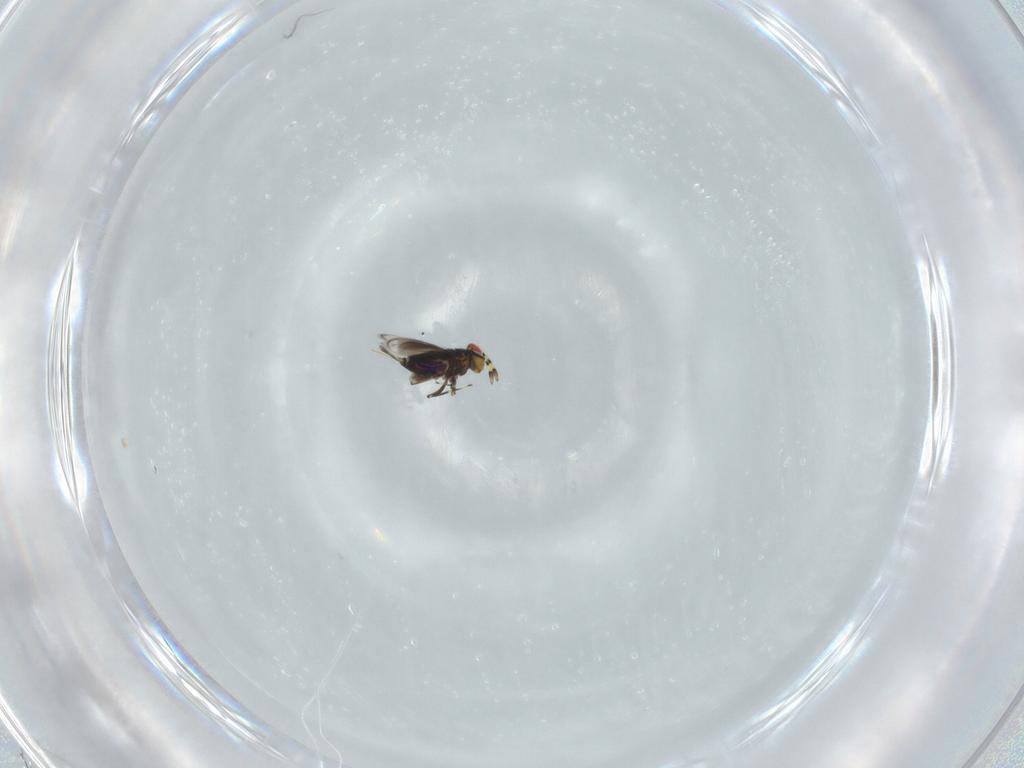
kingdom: Animalia
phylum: Arthropoda
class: Insecta
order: Hymenoptera
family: Azotidae
